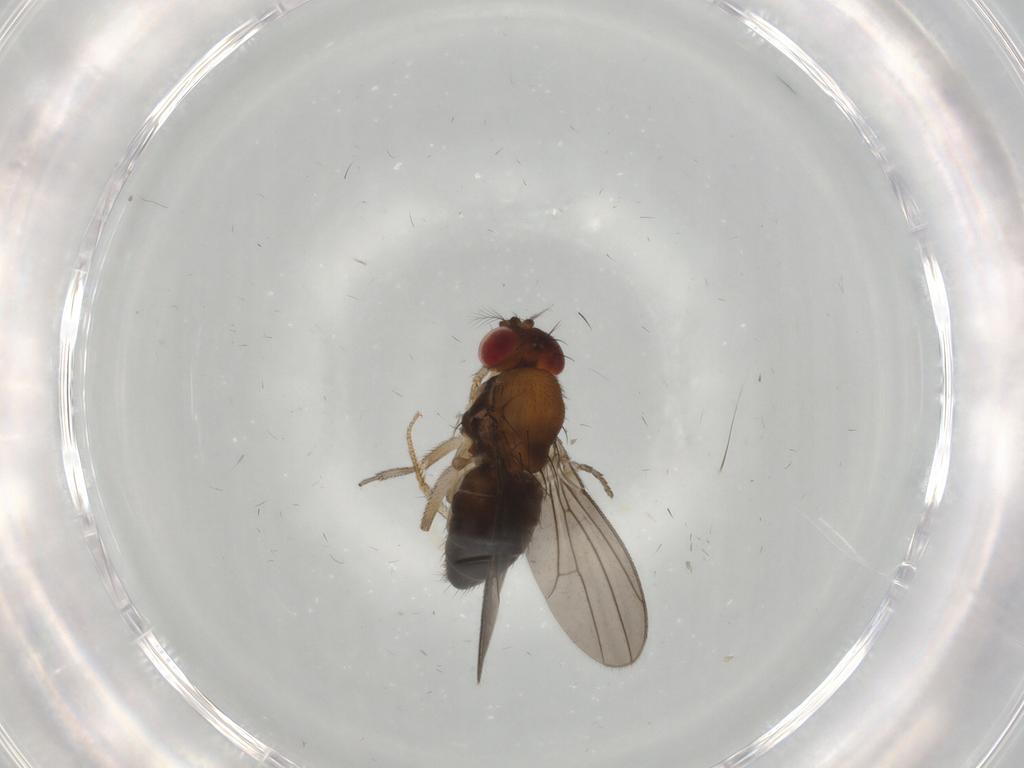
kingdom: Animalia
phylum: Arthropoda
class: Insecta
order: Diptera
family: Drosophilidae
